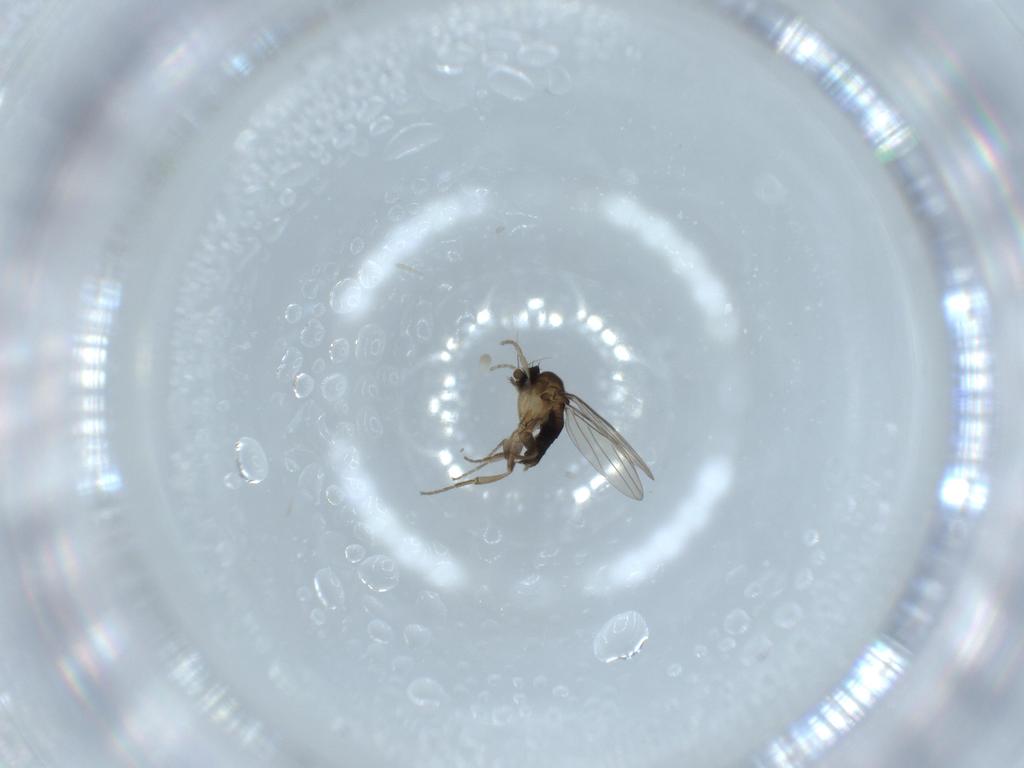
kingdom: Animalia
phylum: Arthropoda
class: Insecta
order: Diptera
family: Phoridae
